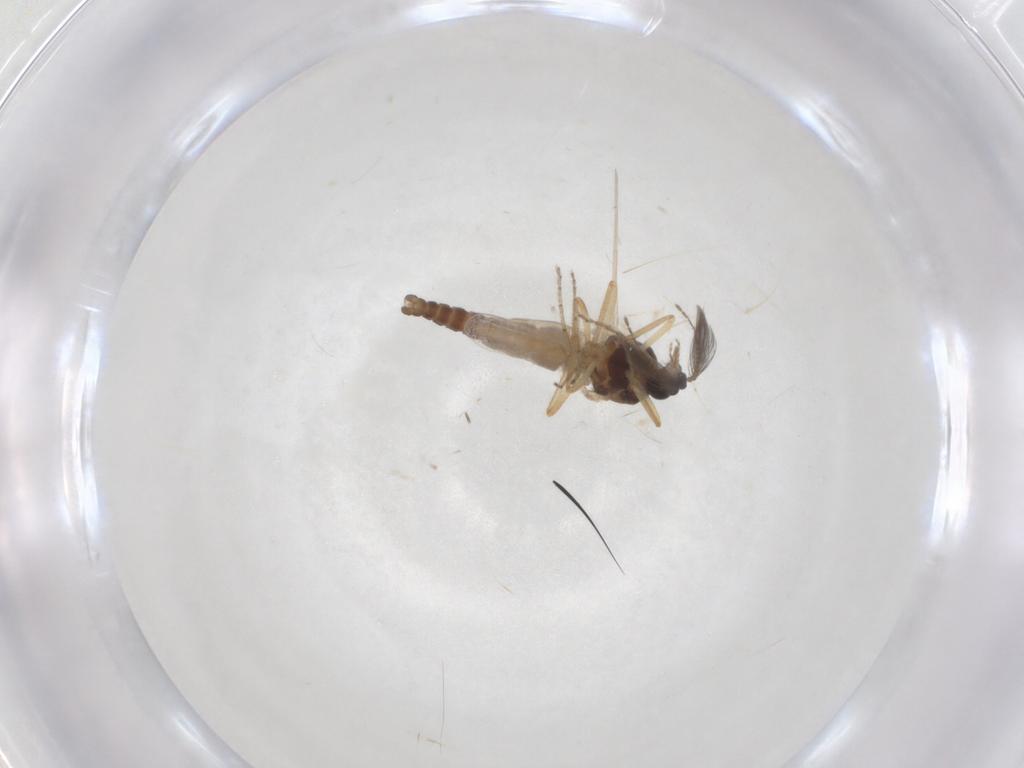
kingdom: Animalia
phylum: Arthropoda
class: Insecta
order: Diptera
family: Ceratopogonidae
